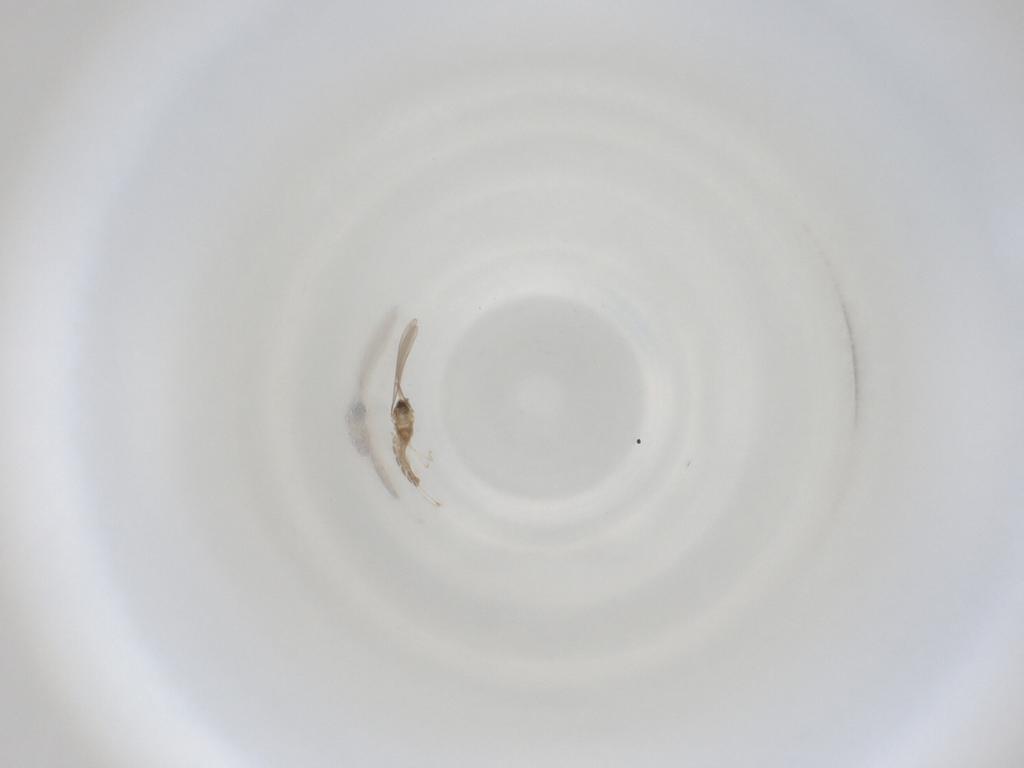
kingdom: Animalia
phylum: Arthropoda
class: Insecta
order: Diptera
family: Cecidomyiidae
